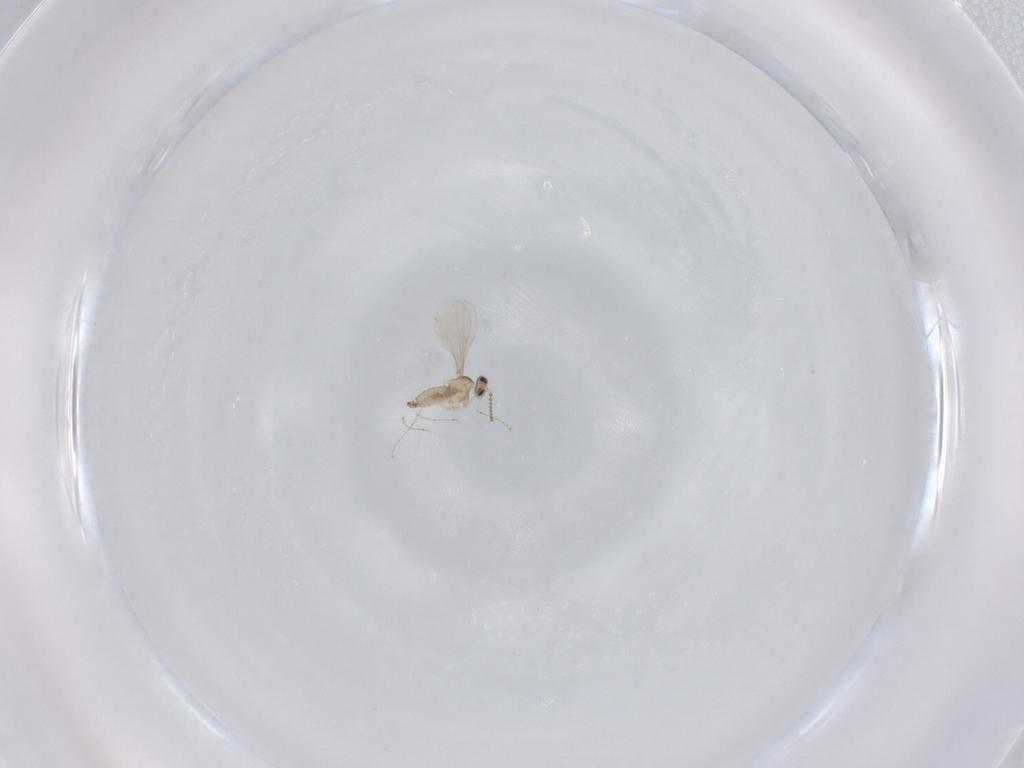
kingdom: Animalia
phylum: Arthropoda
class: Insecta
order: Diptera
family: Cecidomyiidae
